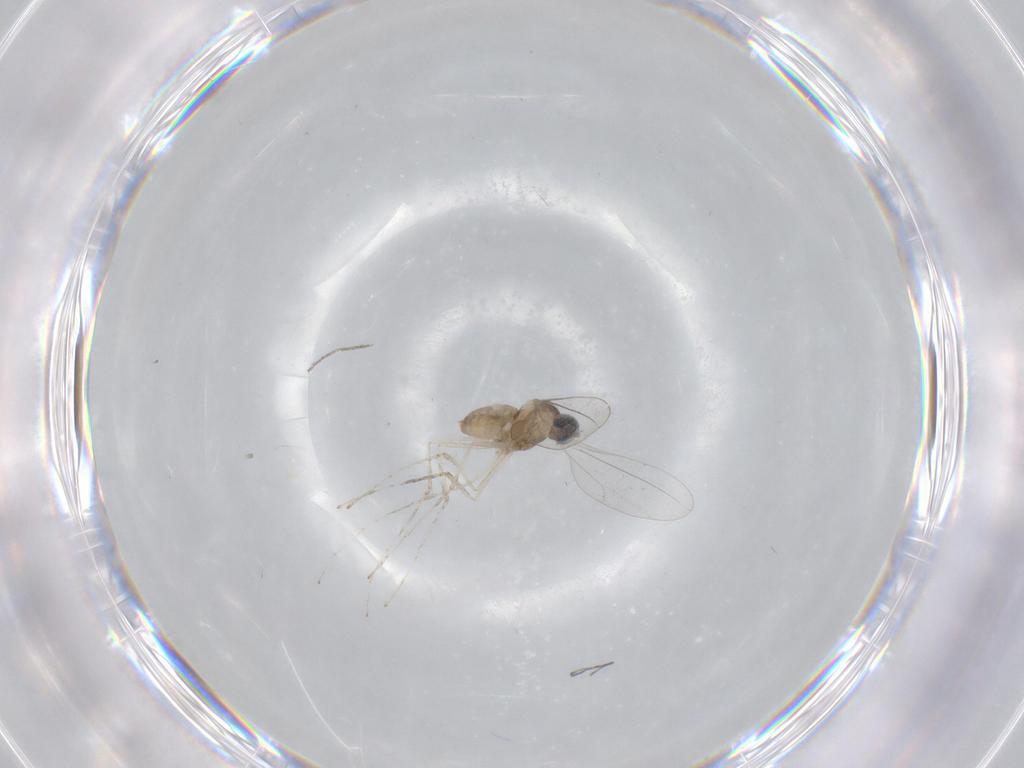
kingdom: Animalia
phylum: Arthropoda
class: Insecta
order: Diptera
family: Cecidomyiidae
